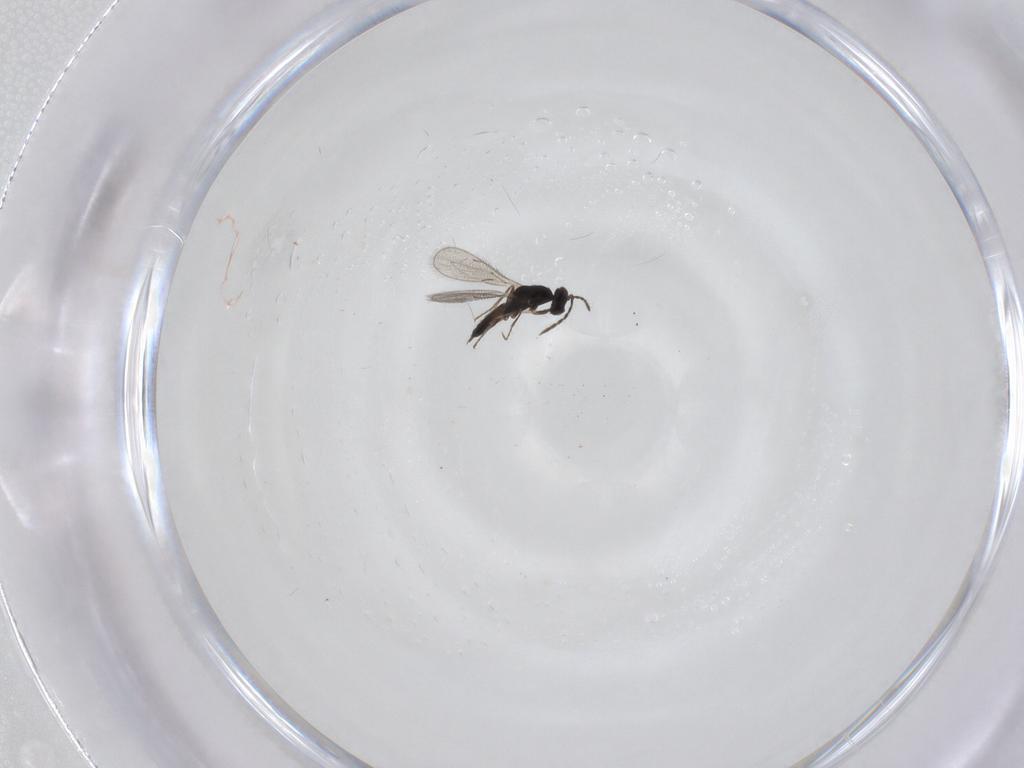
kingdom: Animalia
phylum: Arthropoda
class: Insecta
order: Hymenoptera
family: Eulophidae
